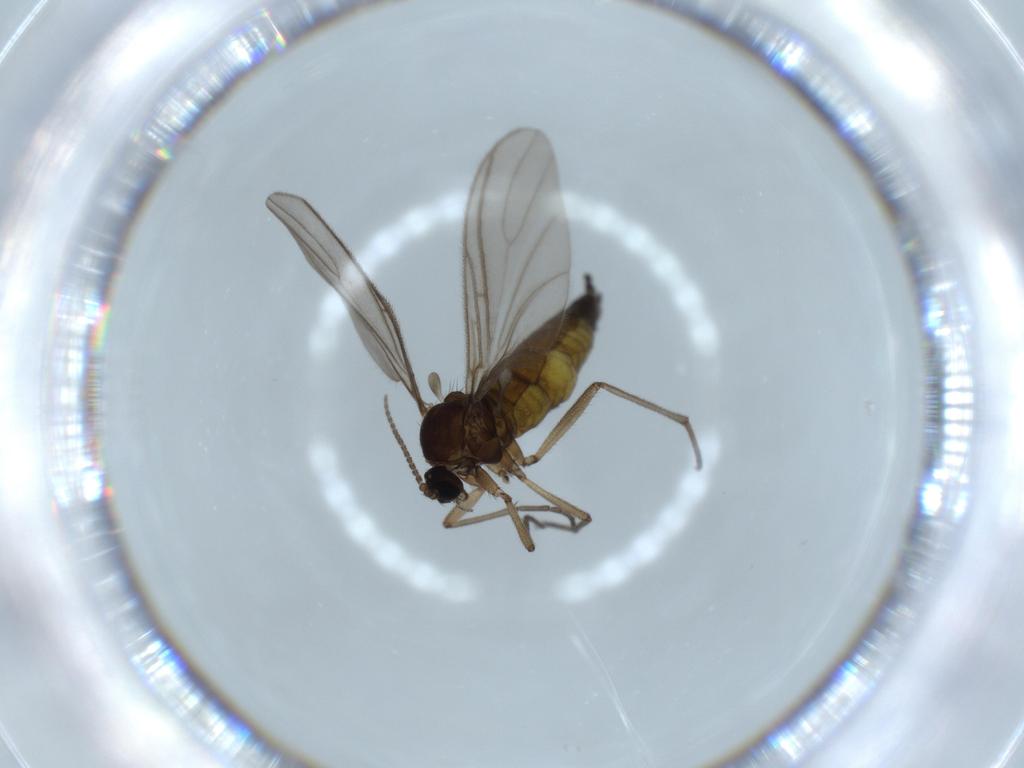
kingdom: Animalia
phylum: Arthropoda
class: Insecta
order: Diptera
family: Sciaridae
